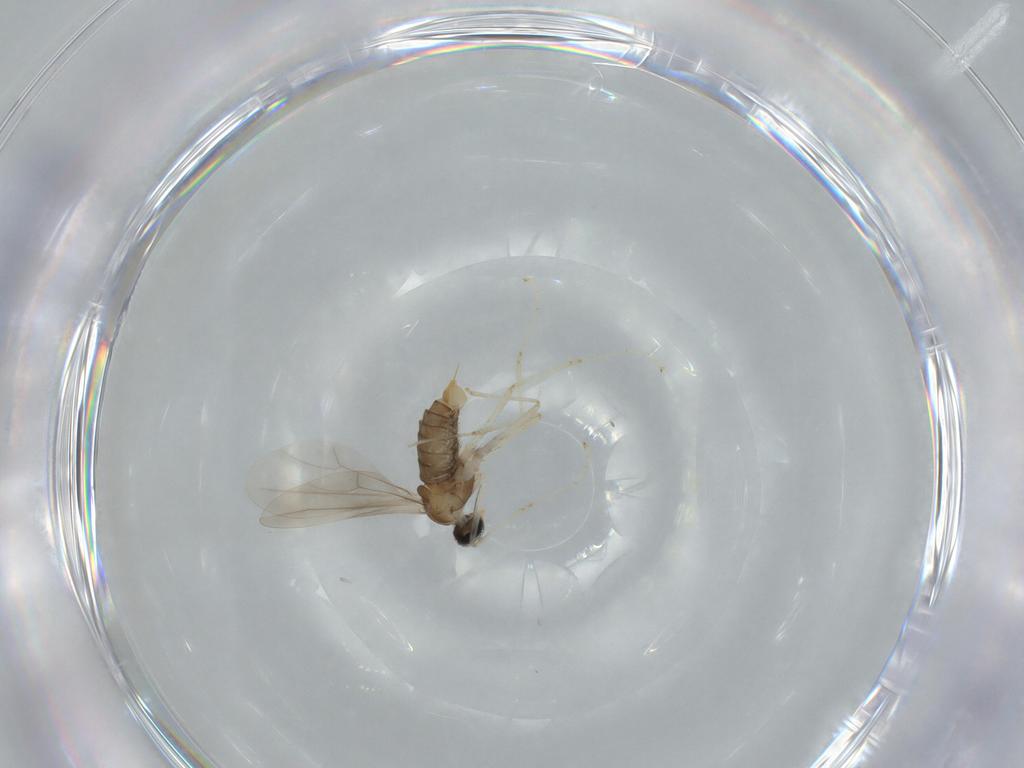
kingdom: Animalia
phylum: Arthropoda
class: Insecta
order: Diptera
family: Cecidomyiidae
